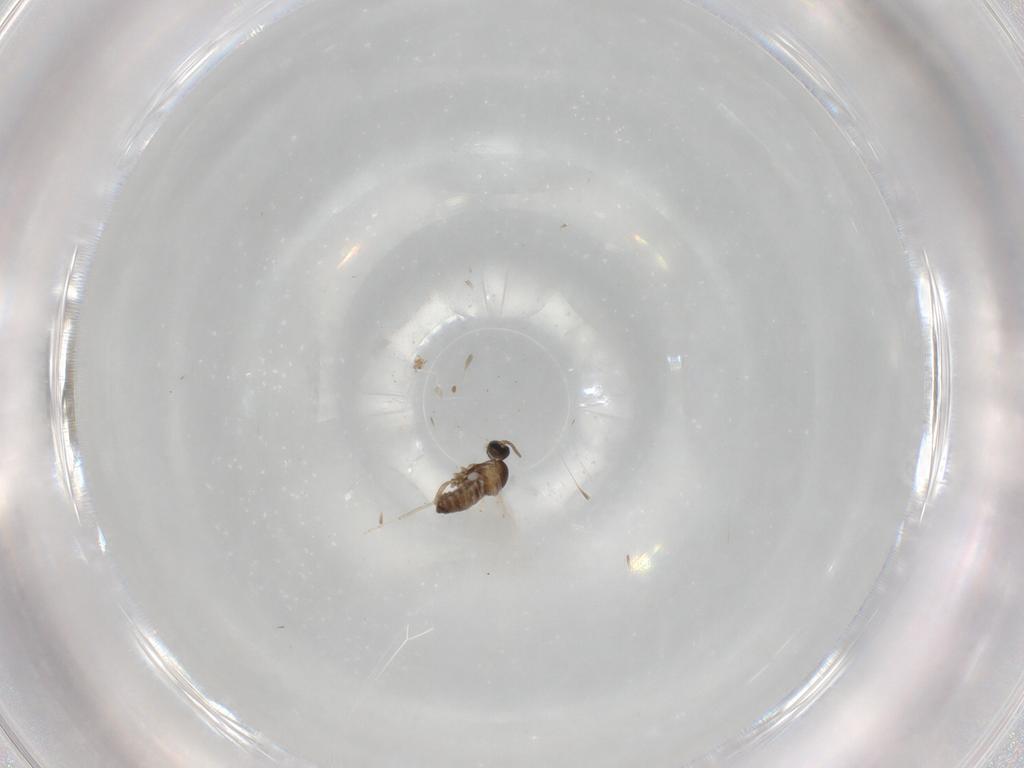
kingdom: Animalia
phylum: Arthropoda
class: Insecta
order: Diptera
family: Cecidomyiidae
